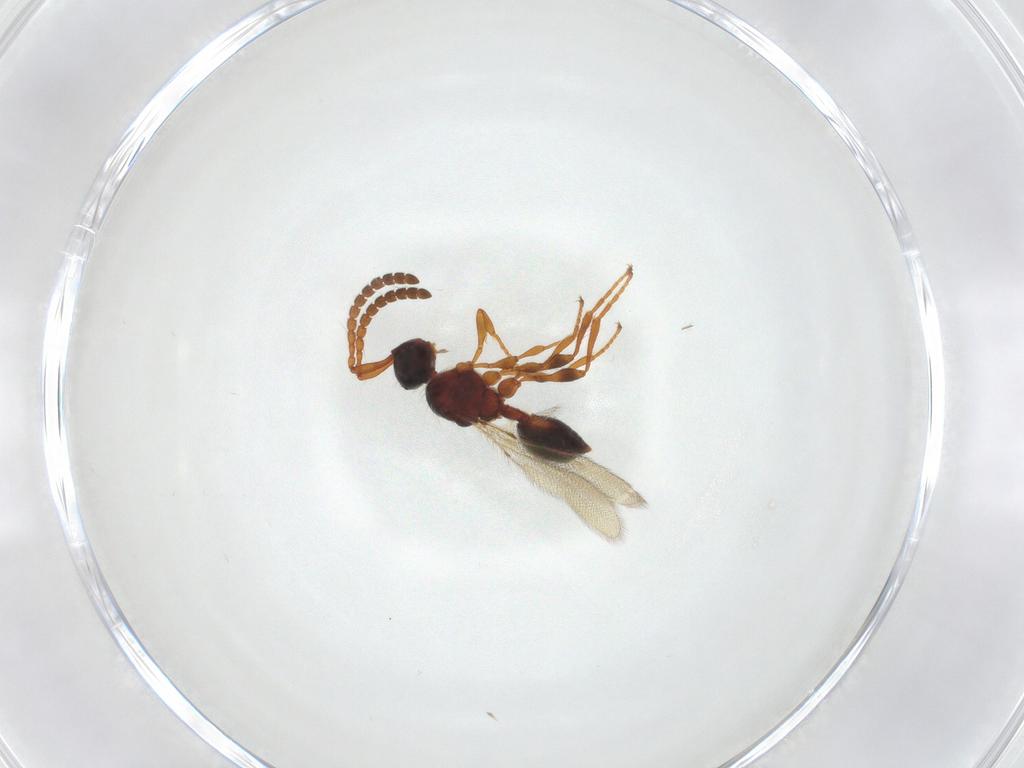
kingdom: Animalia
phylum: Arthropoda
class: Insecta
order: Hymenoptera
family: Diapriidae
